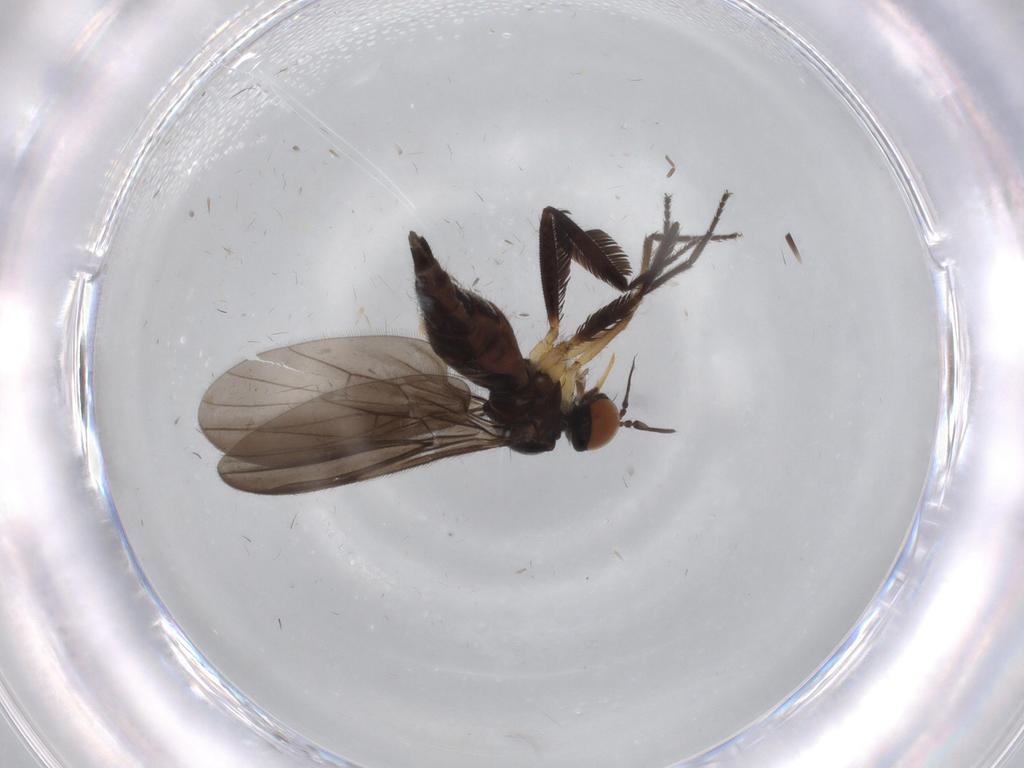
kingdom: Animalia
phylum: Arthropoda
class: Insecta
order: Diptera
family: Empididae
